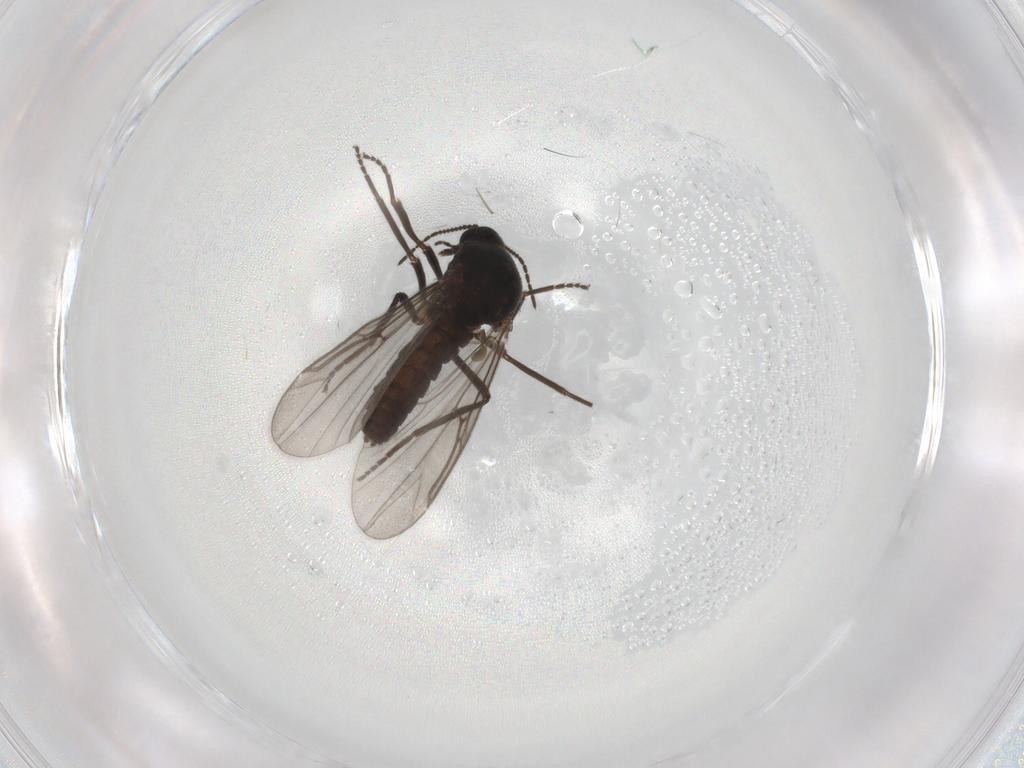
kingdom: Animalia
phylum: Arthropoda
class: Insecta
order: Diptera
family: Ceratopogonidae
